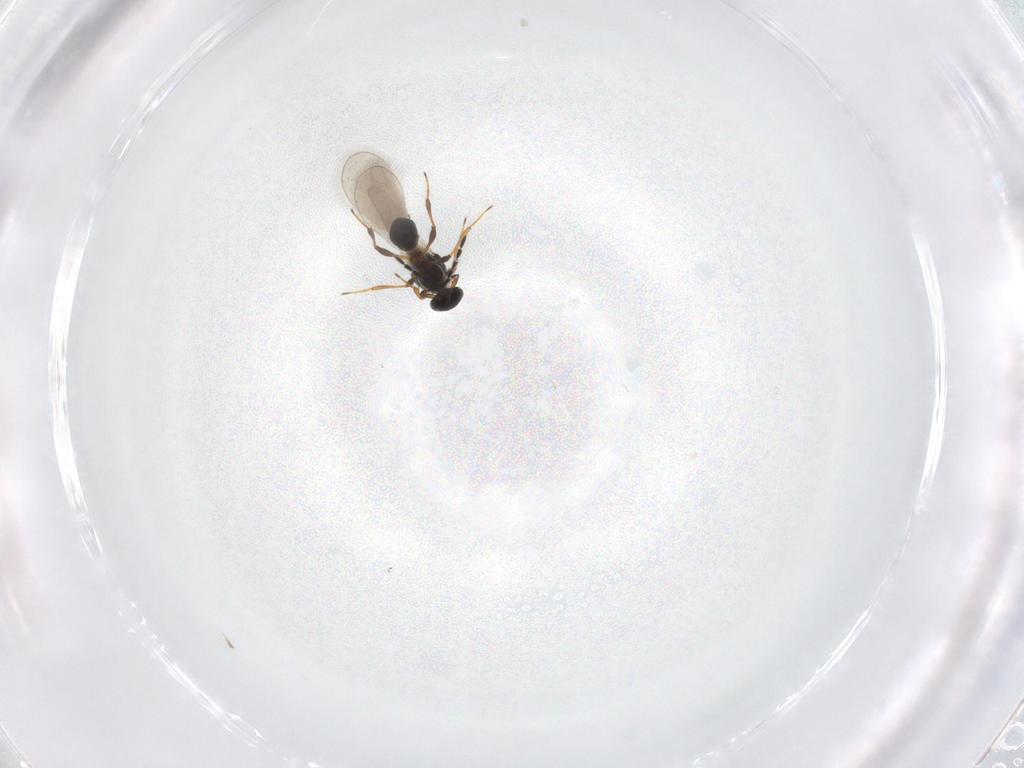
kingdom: Animalia
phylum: Arthropoda
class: Insecta
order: Hymenoptera
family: Platygastridae
